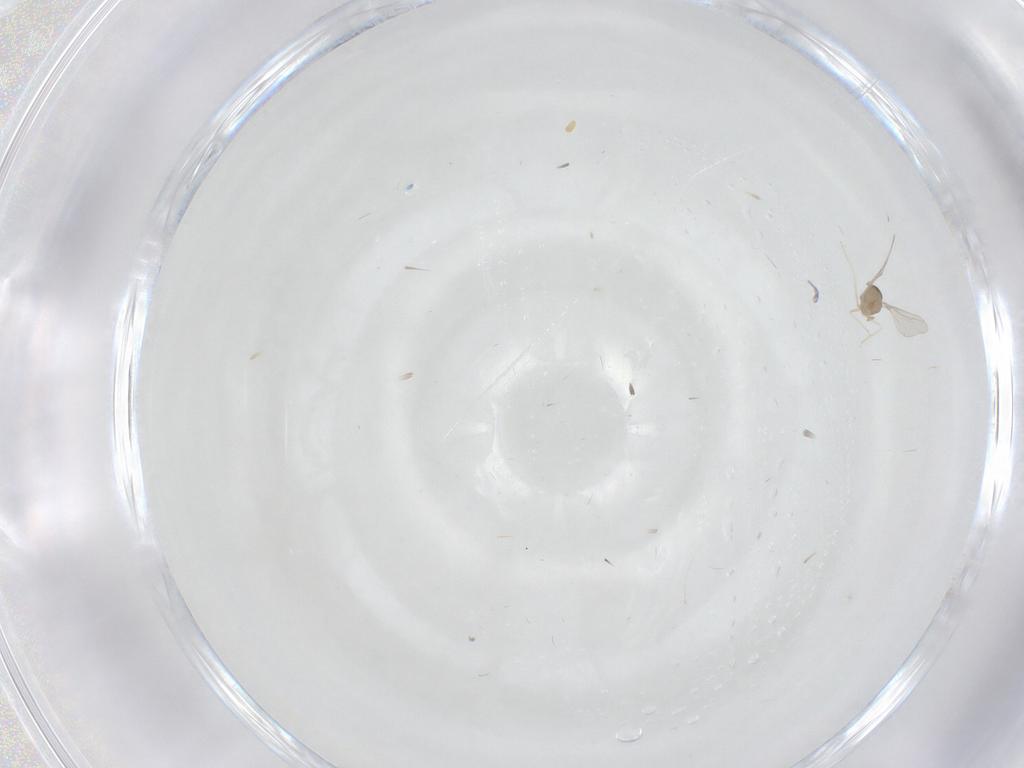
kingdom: Animalia
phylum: Arthropoda
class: Insecta
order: Diptera
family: Cecidomyiidae
